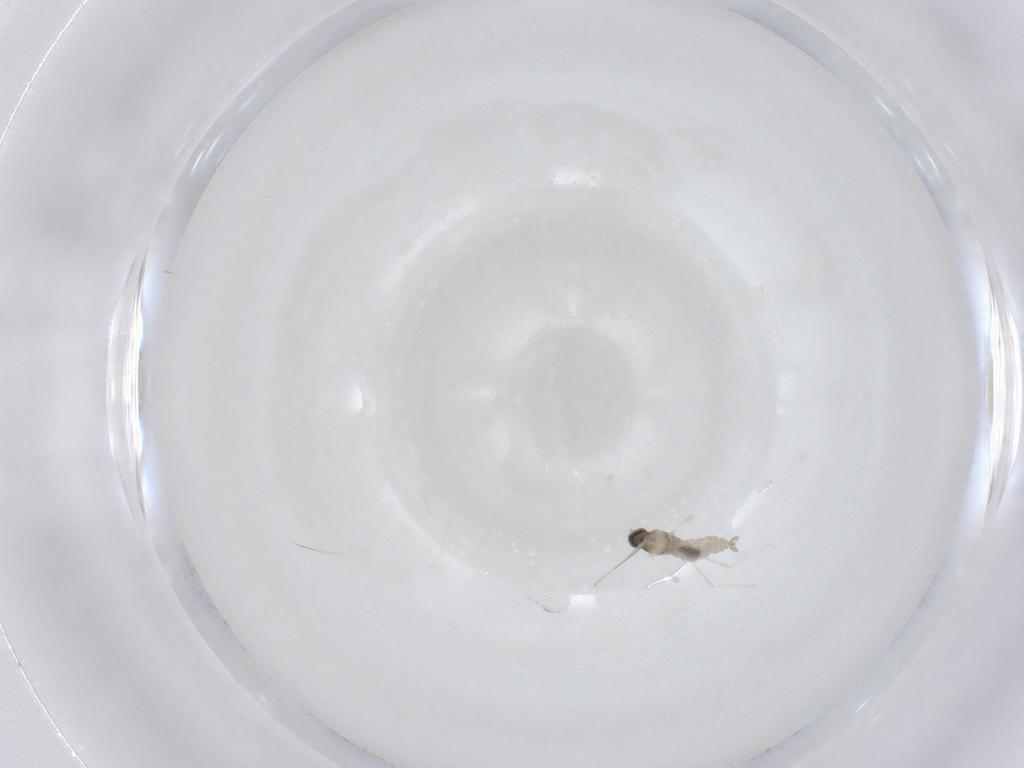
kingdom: Animalia
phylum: Arthropoda
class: Insecta
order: Diptera
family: Cecidomyiidae
